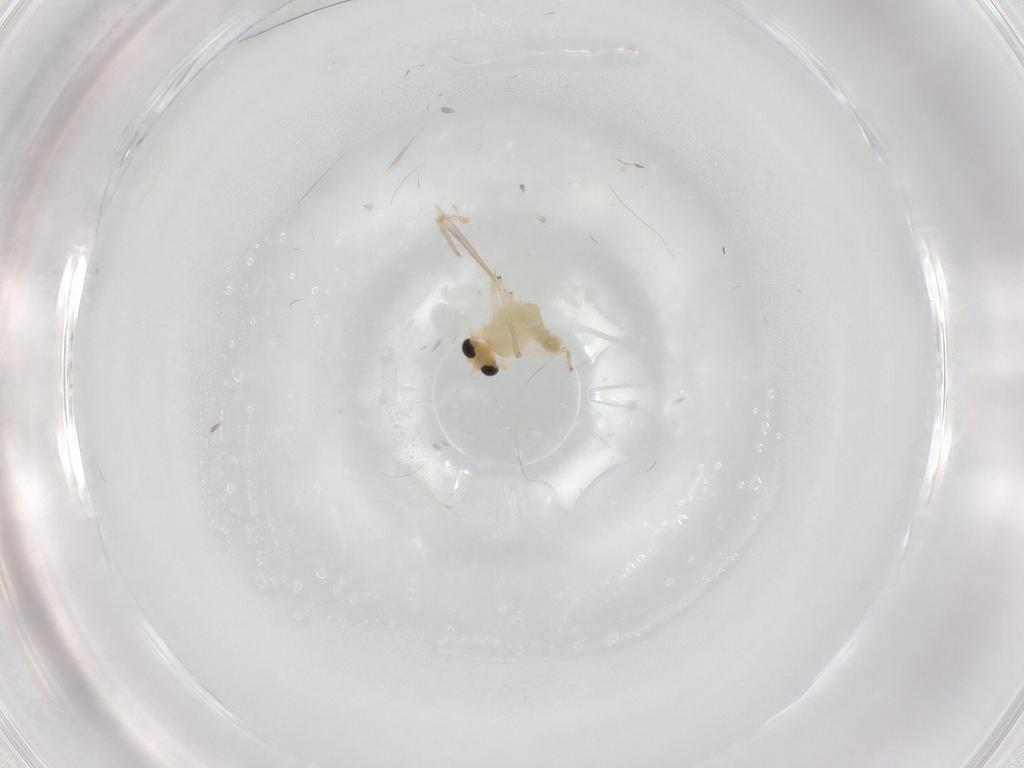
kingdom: Animalia
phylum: Arthropoda
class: Insecta
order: Diptera
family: Chironomidae
